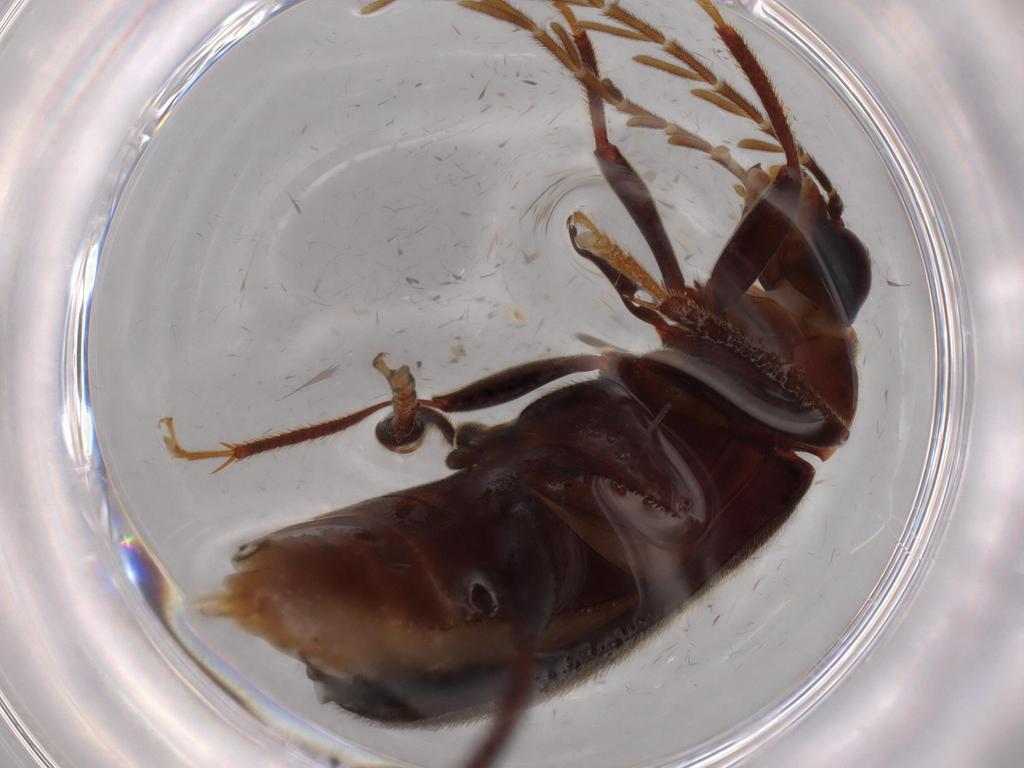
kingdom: Animalia
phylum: Arthropoda
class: Insecta
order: Coleoptera
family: Ptilodactylidae
